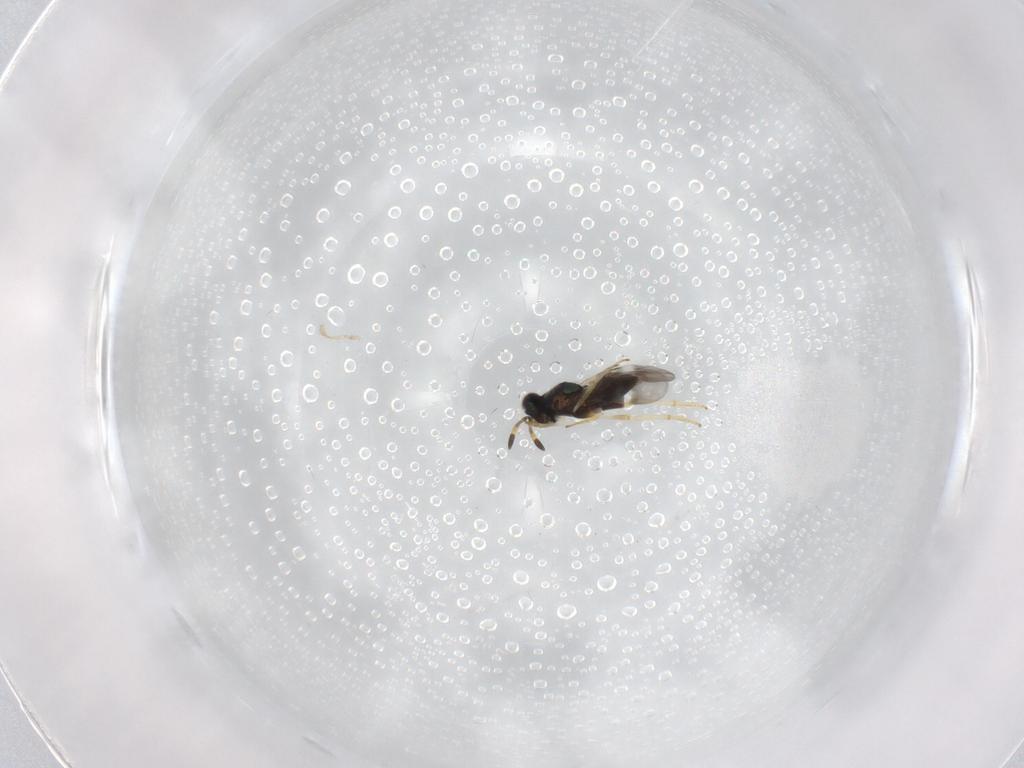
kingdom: Animalia
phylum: Arthropoda
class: Insecta
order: Hymenoptera
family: Encyrtidae
